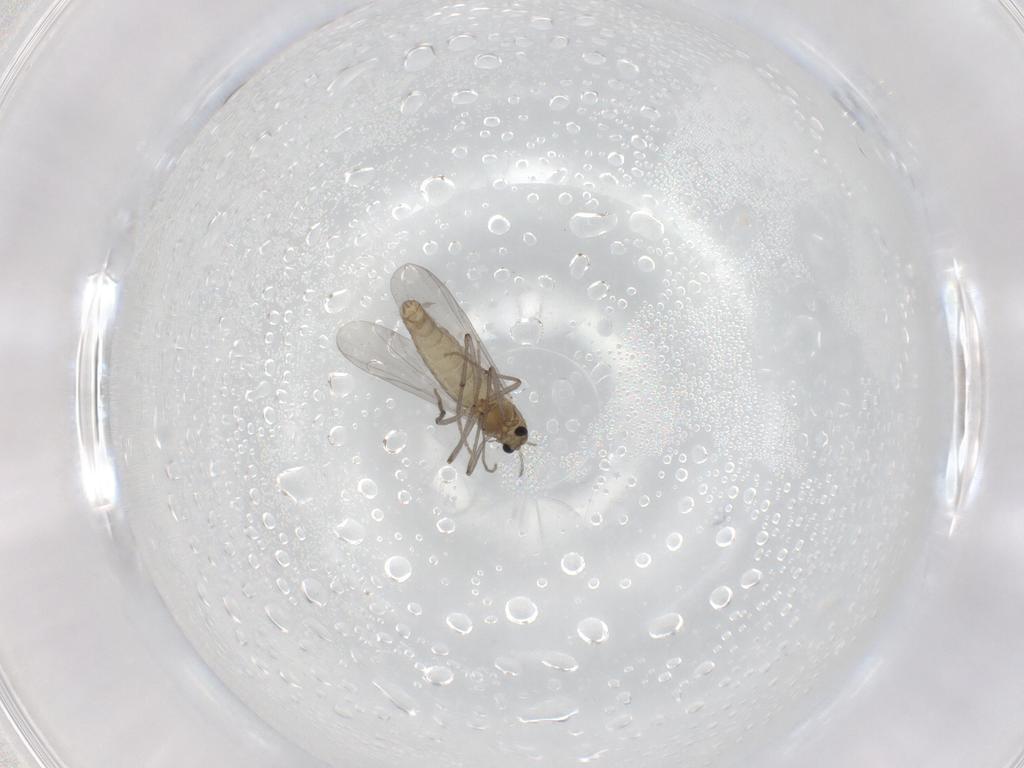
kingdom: Animalia
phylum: Arthropoda
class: Insecta
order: Diptera
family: Chironomidae
